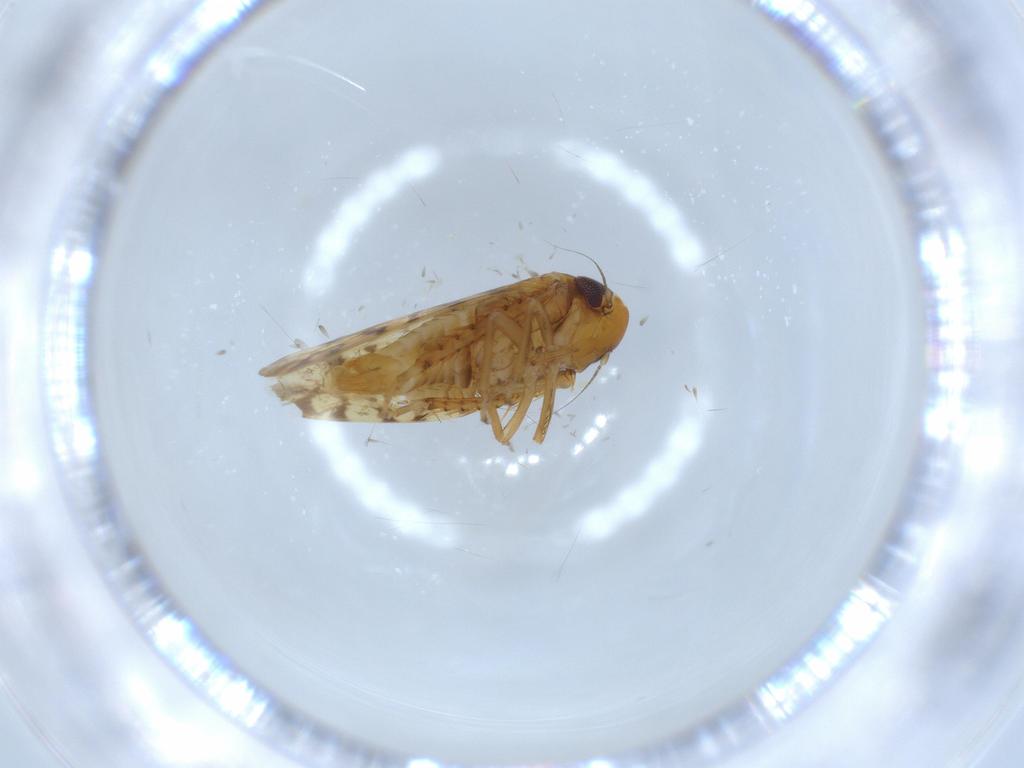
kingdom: Animalia
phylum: Arthropoda
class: Insecta
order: Hemiptera
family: Cicadellidae
